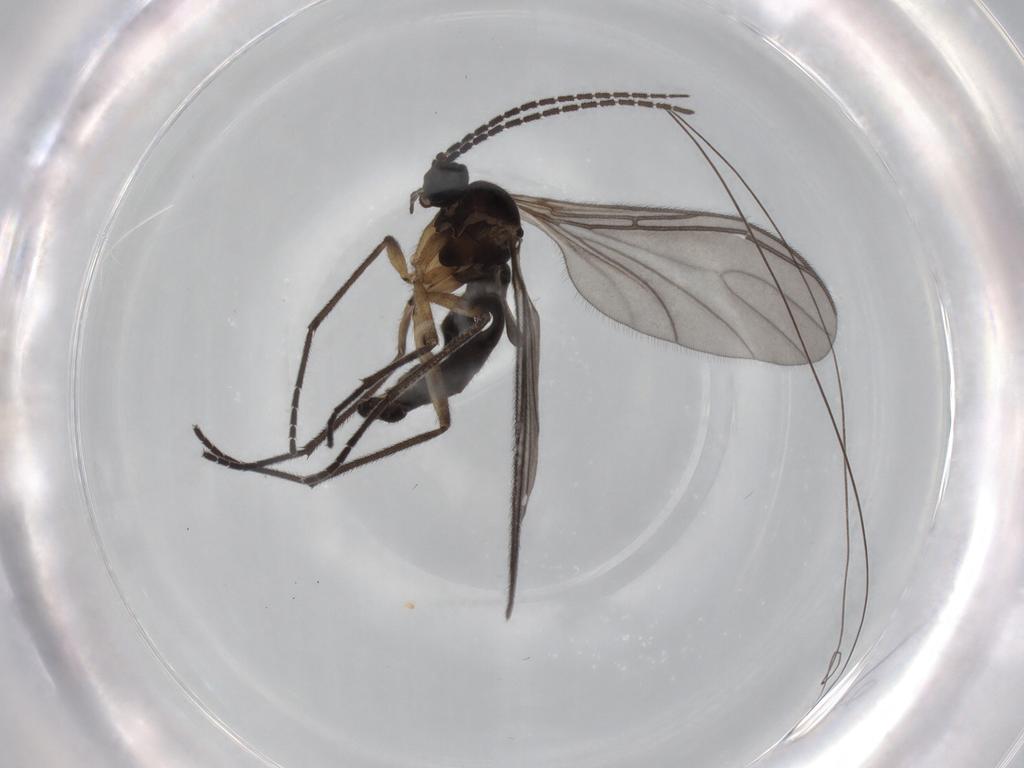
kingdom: Animalia
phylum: Arthropoda
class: Insecta
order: Diptera
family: Sciaridae
